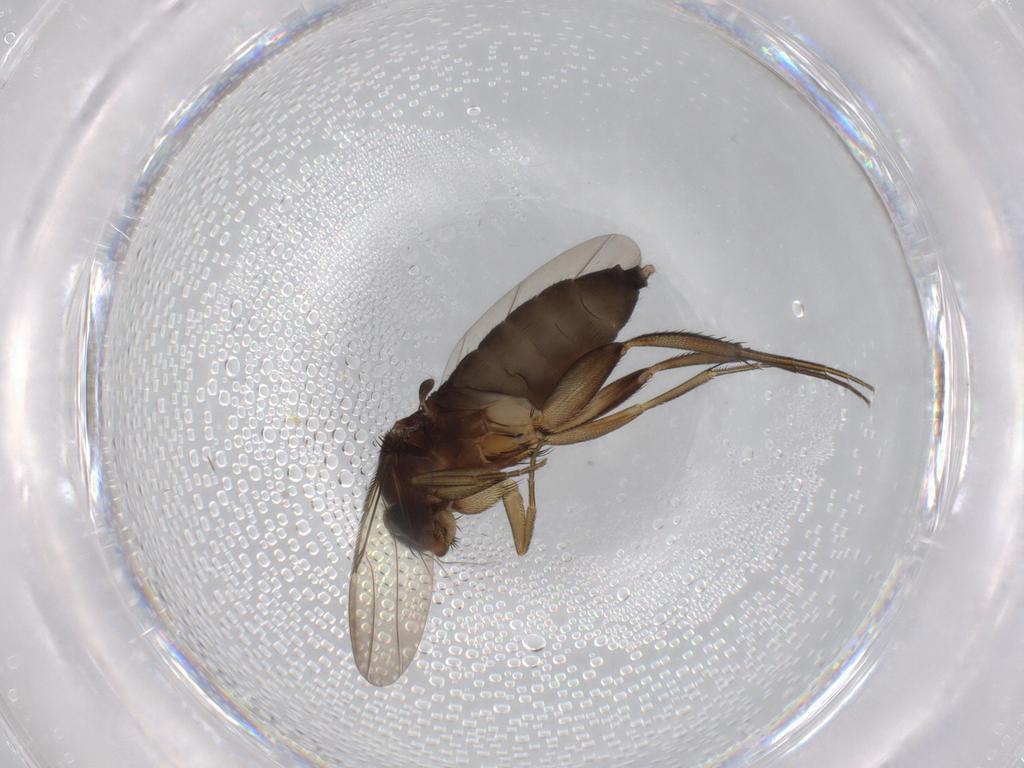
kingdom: Animalia
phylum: Arthropoda
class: Insecta
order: Diptera
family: Phoridae
